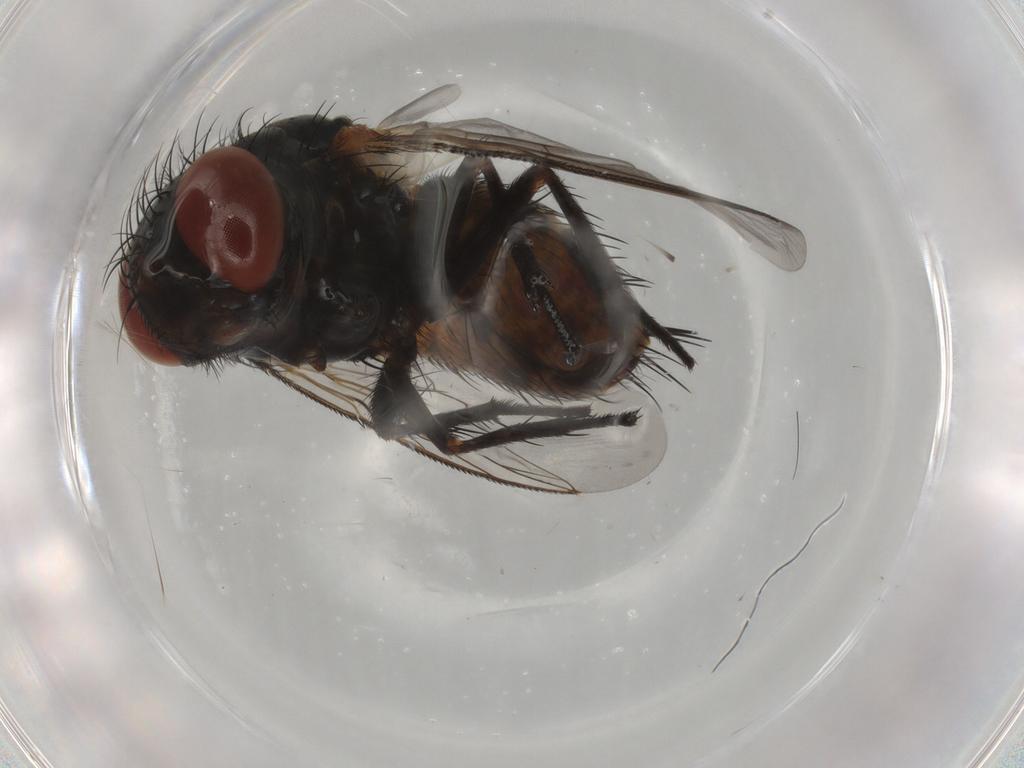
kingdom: Animalia
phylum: Arthropoda
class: Insecta
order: Diptera
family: Sarcophagidae
